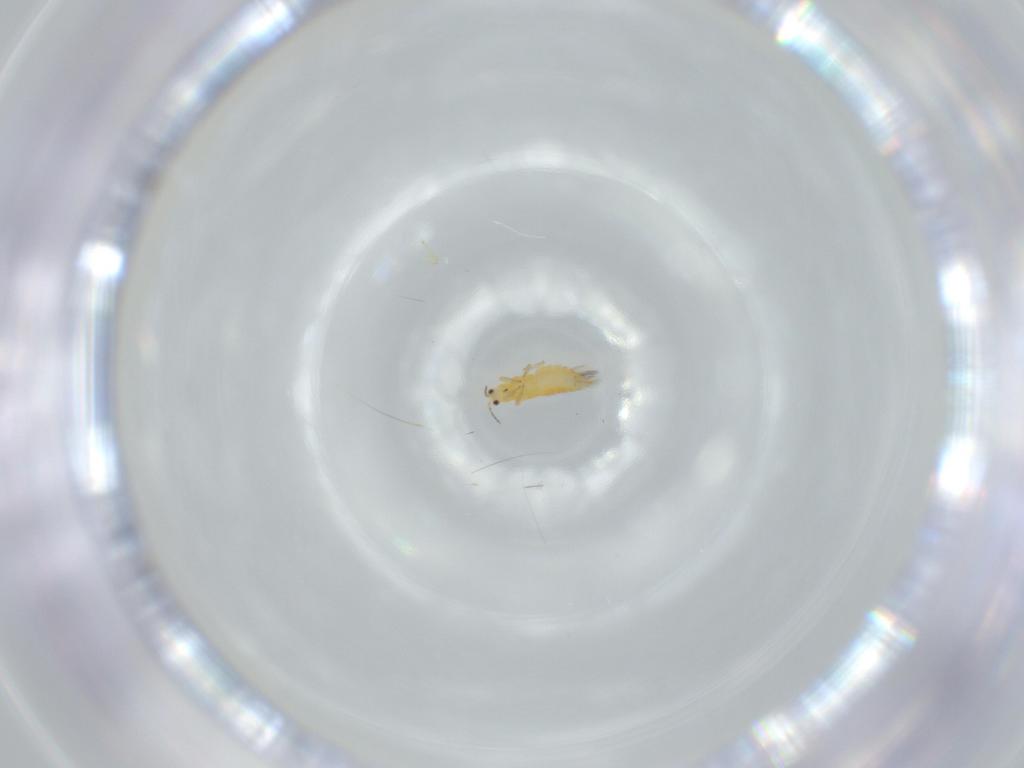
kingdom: Animalia
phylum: Arthropoda
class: Insecta
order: Thysanoptera
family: Thripidae
